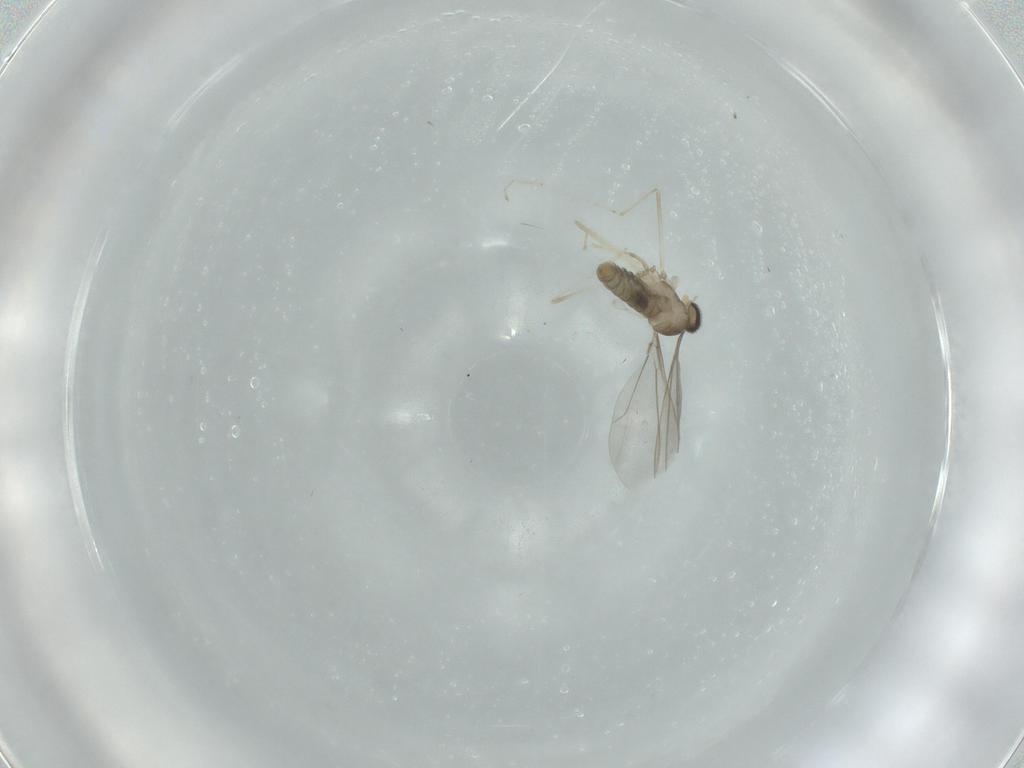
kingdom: Animalia
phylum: Arthropoda
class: Insecta
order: Diptera
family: Cecidomyiidae
